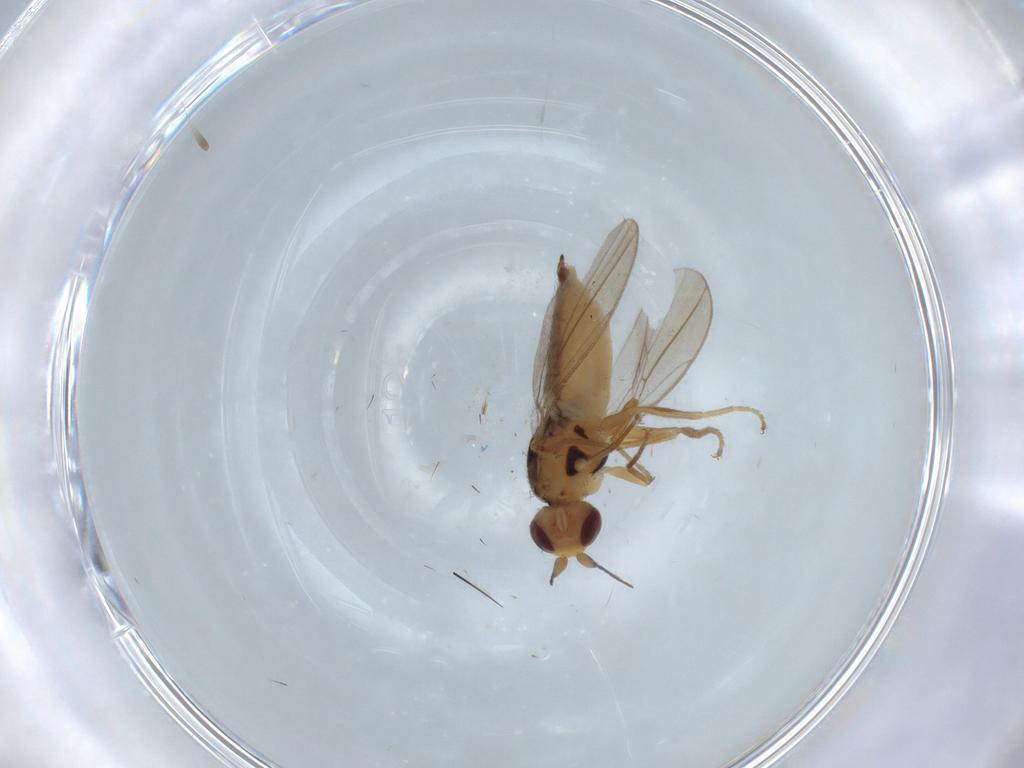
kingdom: Animalia
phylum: Arthropoda
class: Insecta
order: Diptera
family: Chloropidae
